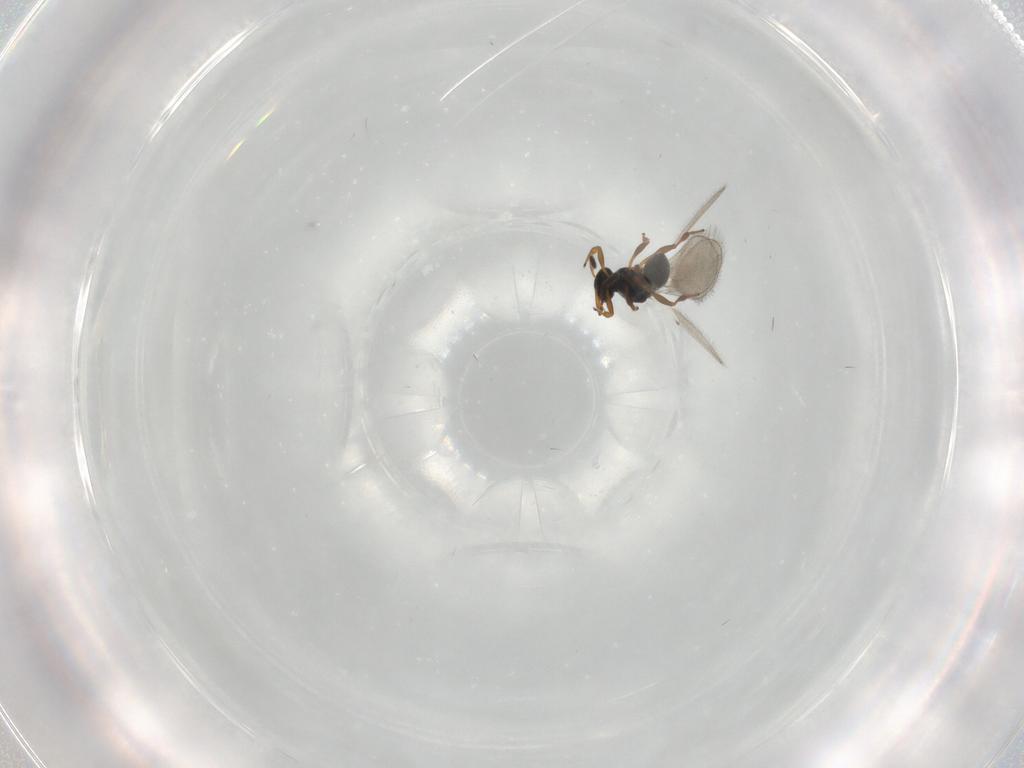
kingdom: Animalia
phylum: Arthropoda
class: Insecta
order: Hymenoptera
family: Platygastridae
